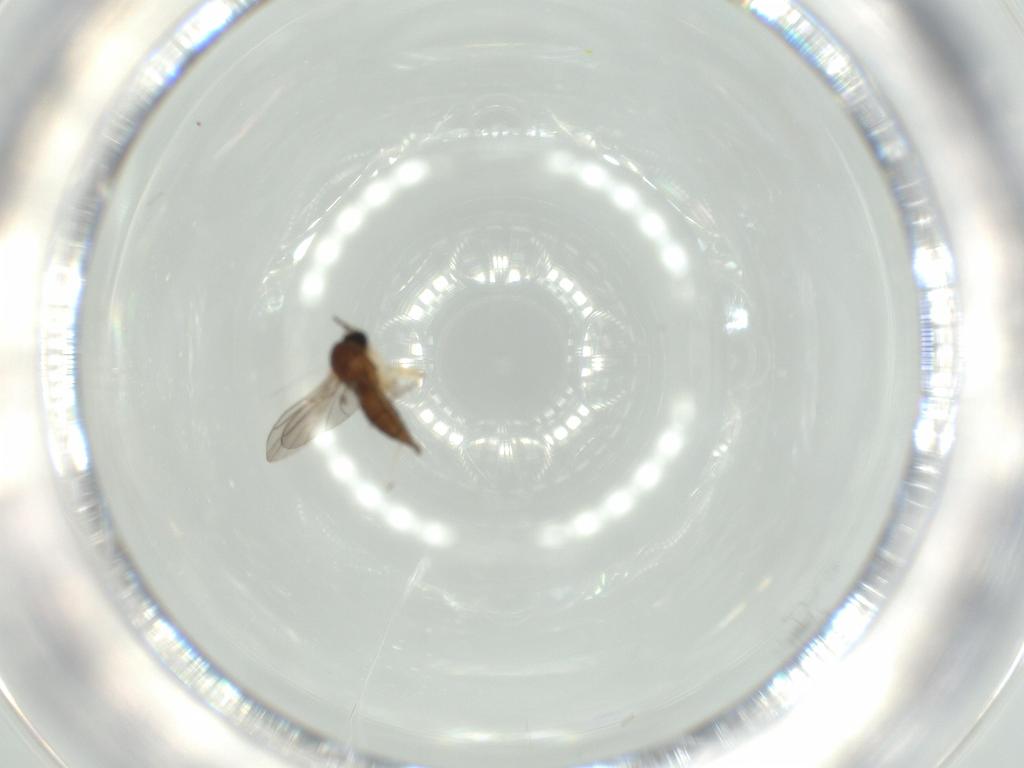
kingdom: Animalia
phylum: Arthropoda
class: Insecta
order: Diptera
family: Sciaridae
